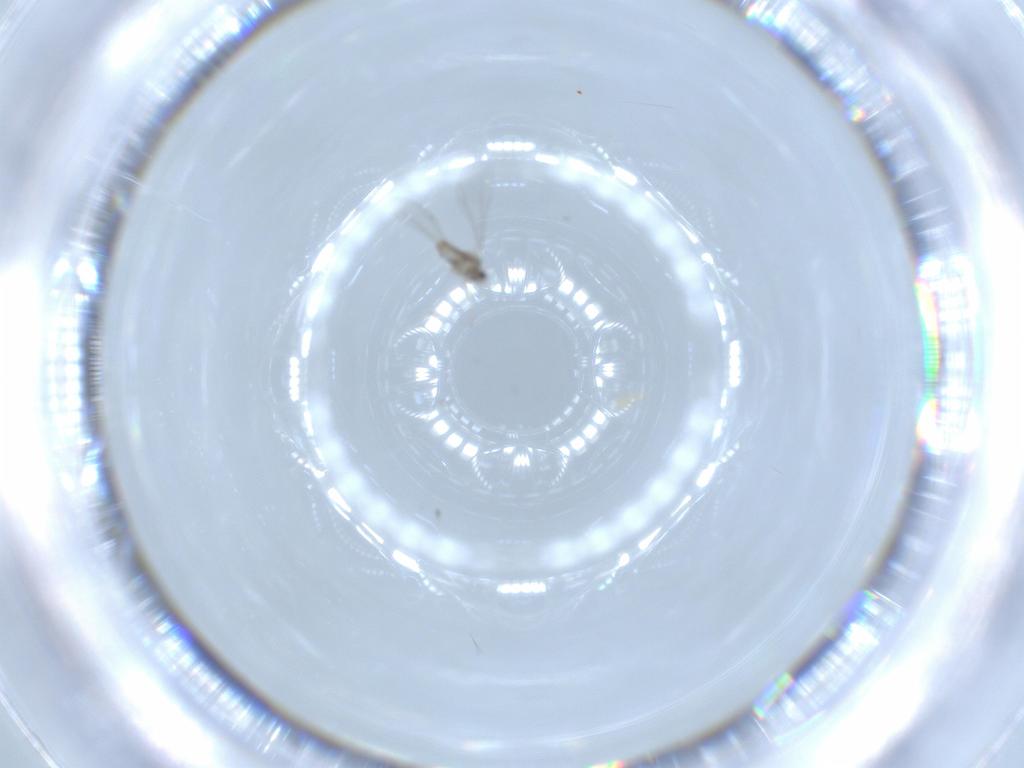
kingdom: Animalia
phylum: Arthropoda
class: Insecta
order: Diptera
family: Cecidomyiidae
